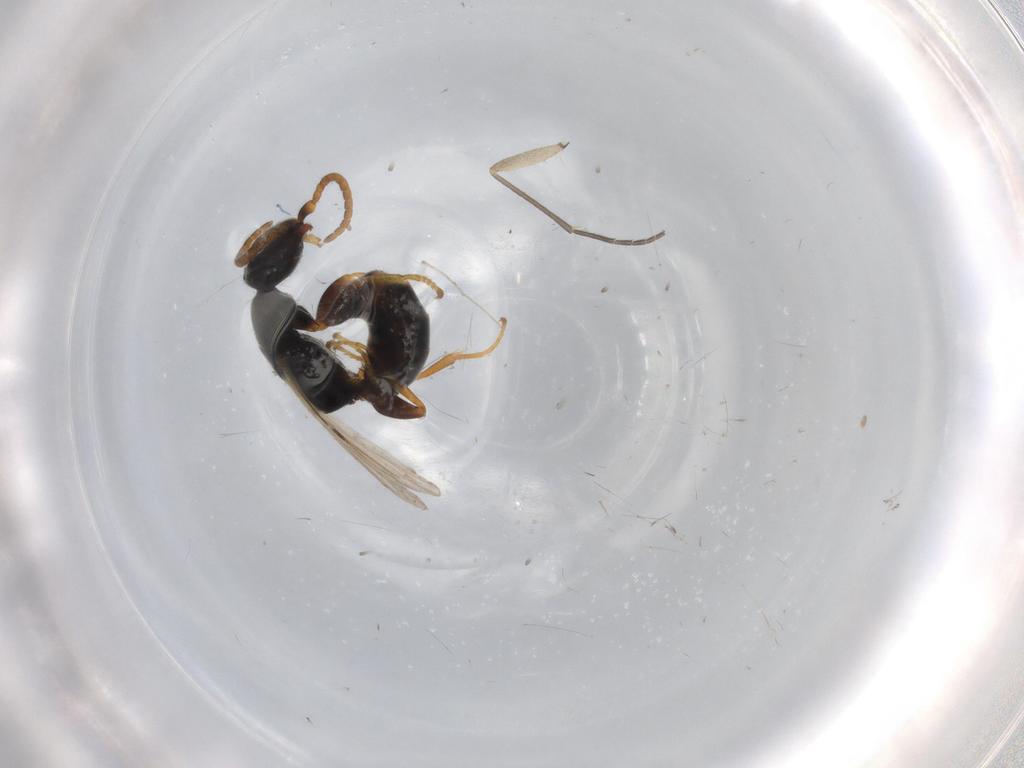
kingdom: Animalia
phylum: Arthropoda
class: Insecta
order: Hymenoptera
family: Bethylidae
